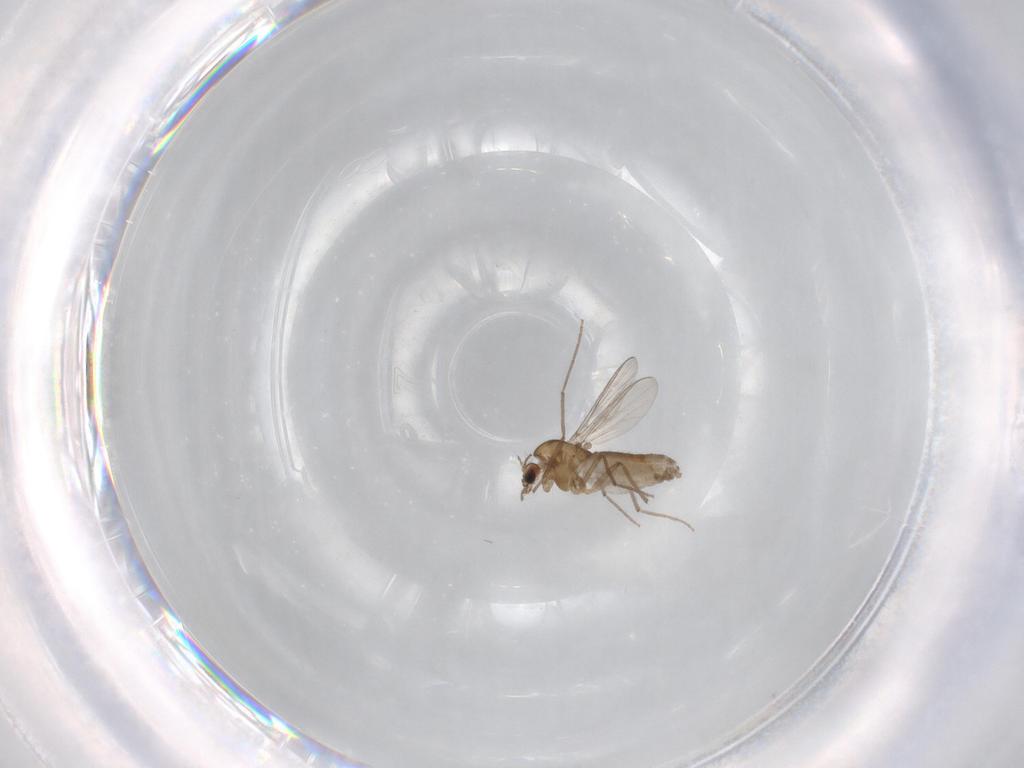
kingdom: Animalia
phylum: Arthropoda
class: Insecta
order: Diptera
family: Chironomidae
